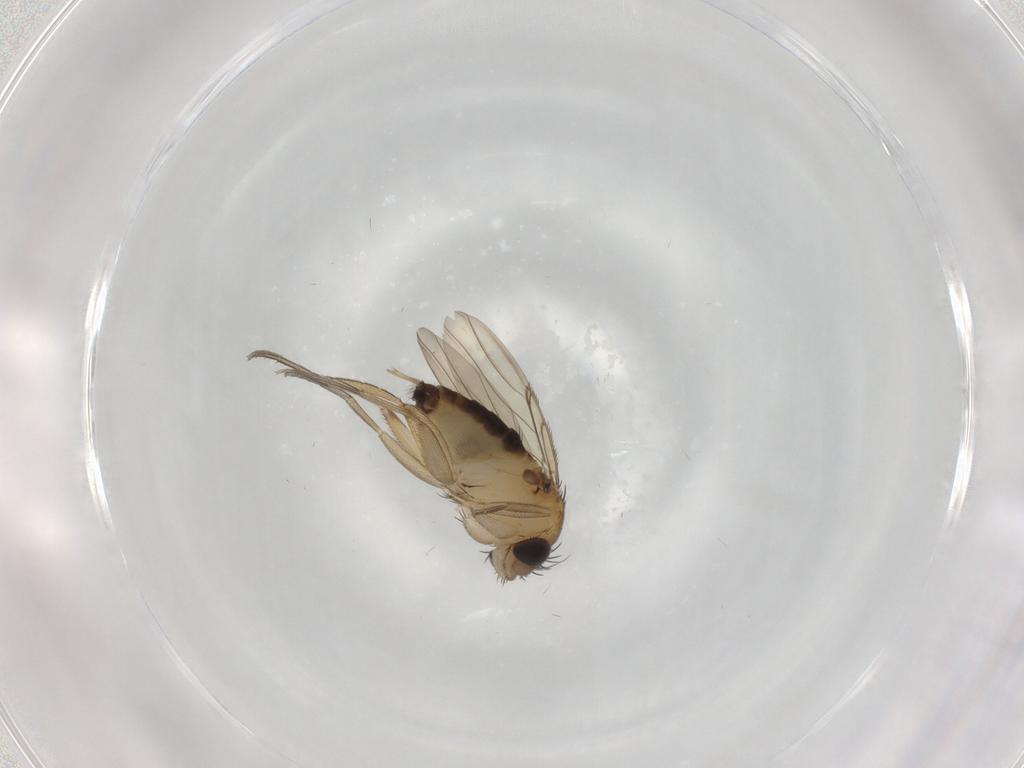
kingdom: Animalia
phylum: Arthropoda
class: Insecta
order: Diptera
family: Phoridae
